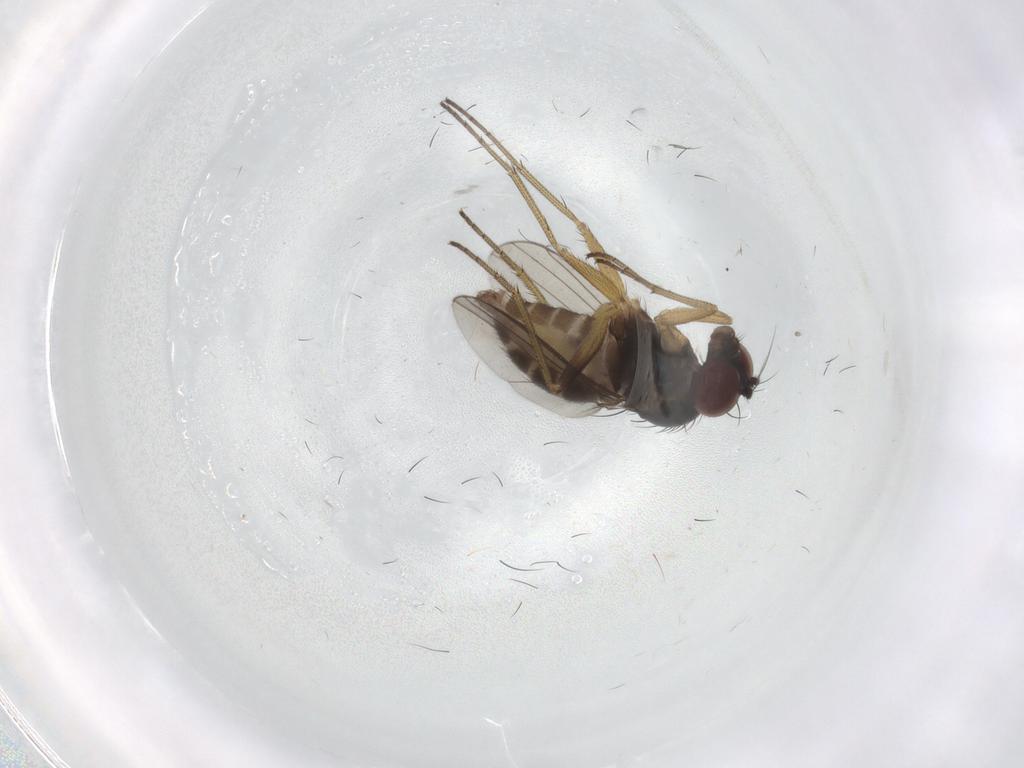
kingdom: Animalia
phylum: Arthropoda
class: Insecta
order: Diptera
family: Dolichopodidae
